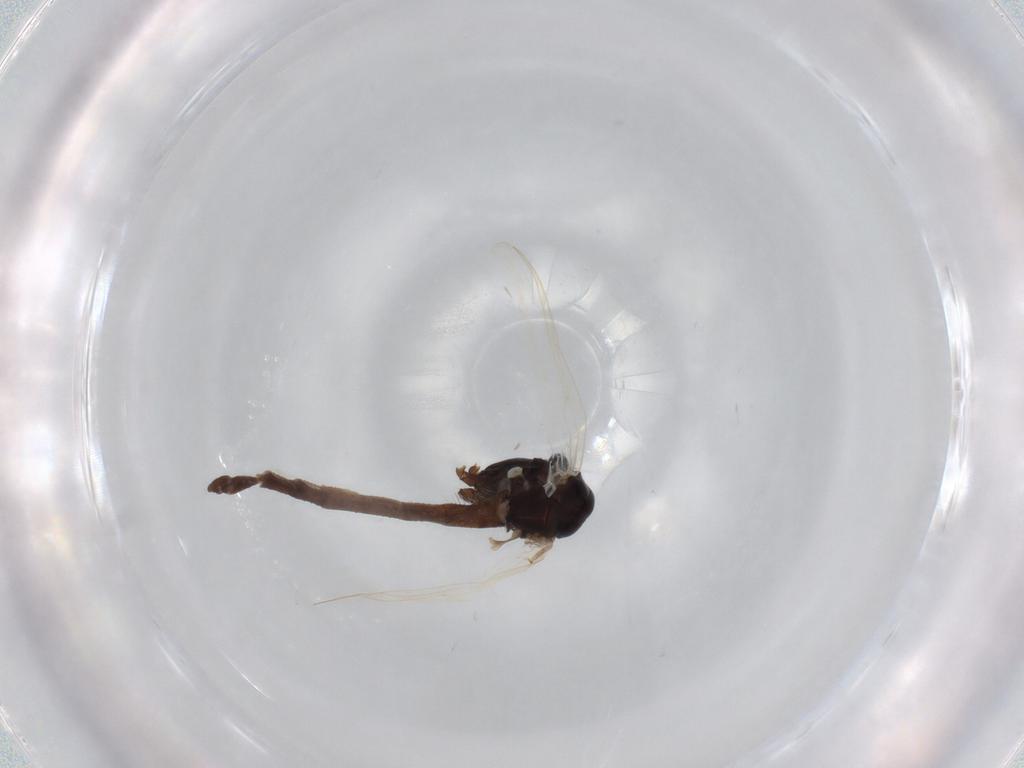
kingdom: Animalia
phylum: Arthropoda
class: Insecta
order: Diptera
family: Chironomidae
